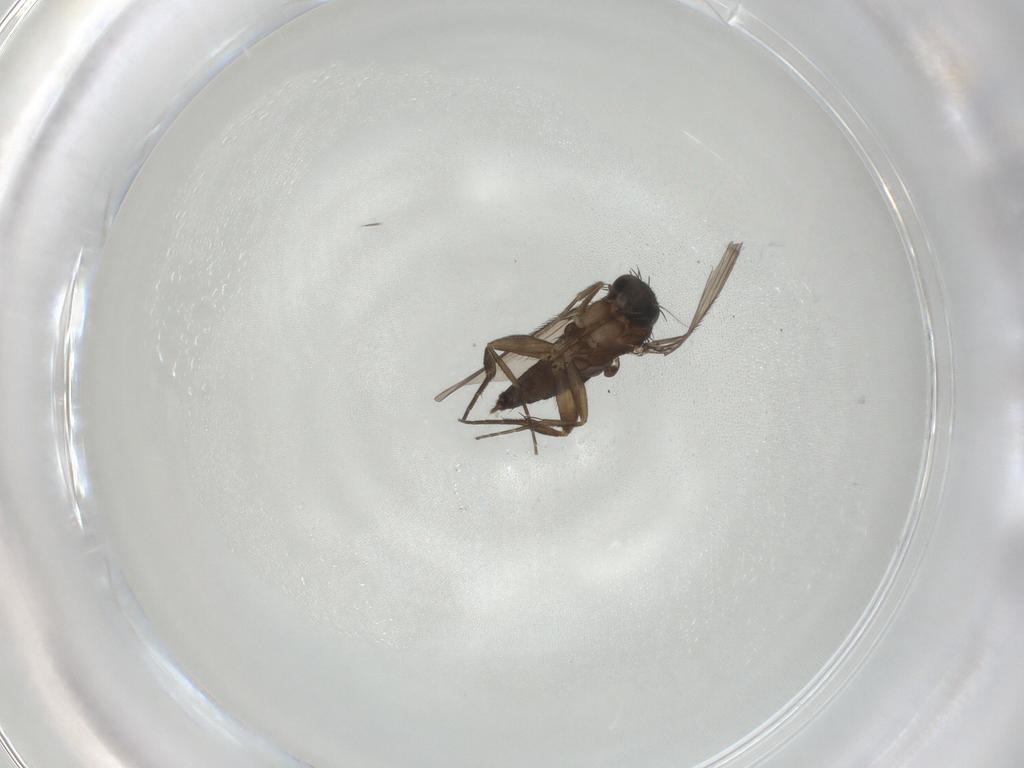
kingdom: Animalia
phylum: Arthropoda
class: Insecta
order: Diptera
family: Phoridae
